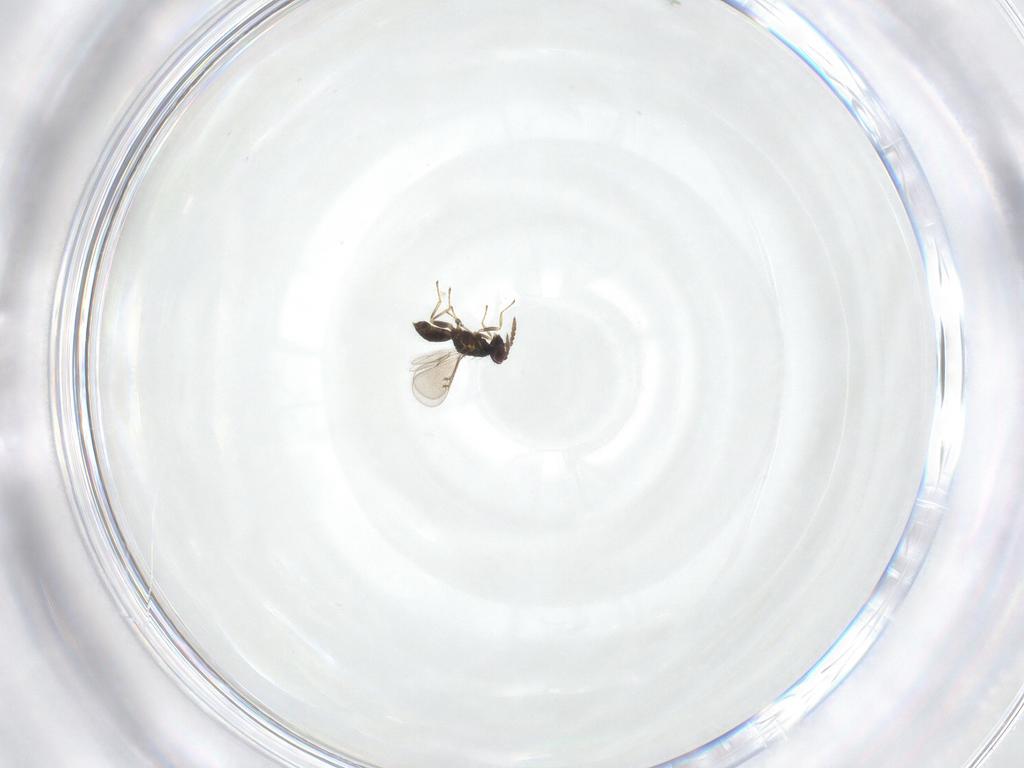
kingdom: Animalia
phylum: Arthropoda
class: Insecta
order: Hymenoptera
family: Eulophidae
